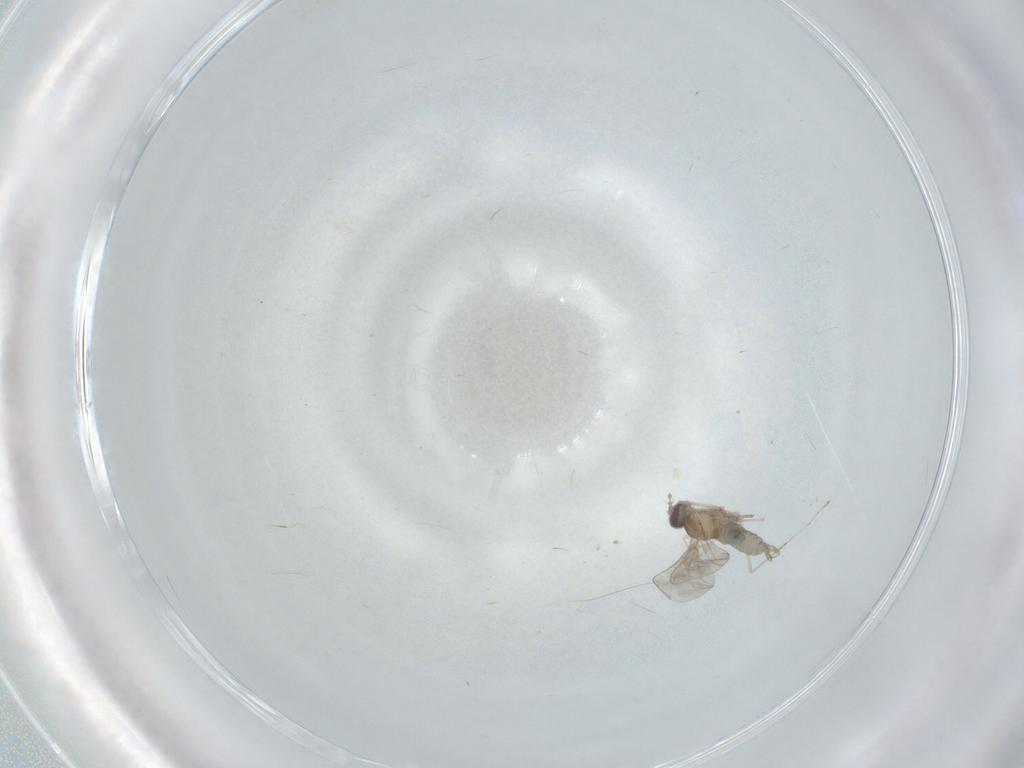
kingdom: Animalia
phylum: Arthropoda
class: Insecta
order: Diptera
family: Cecidomyiidae
